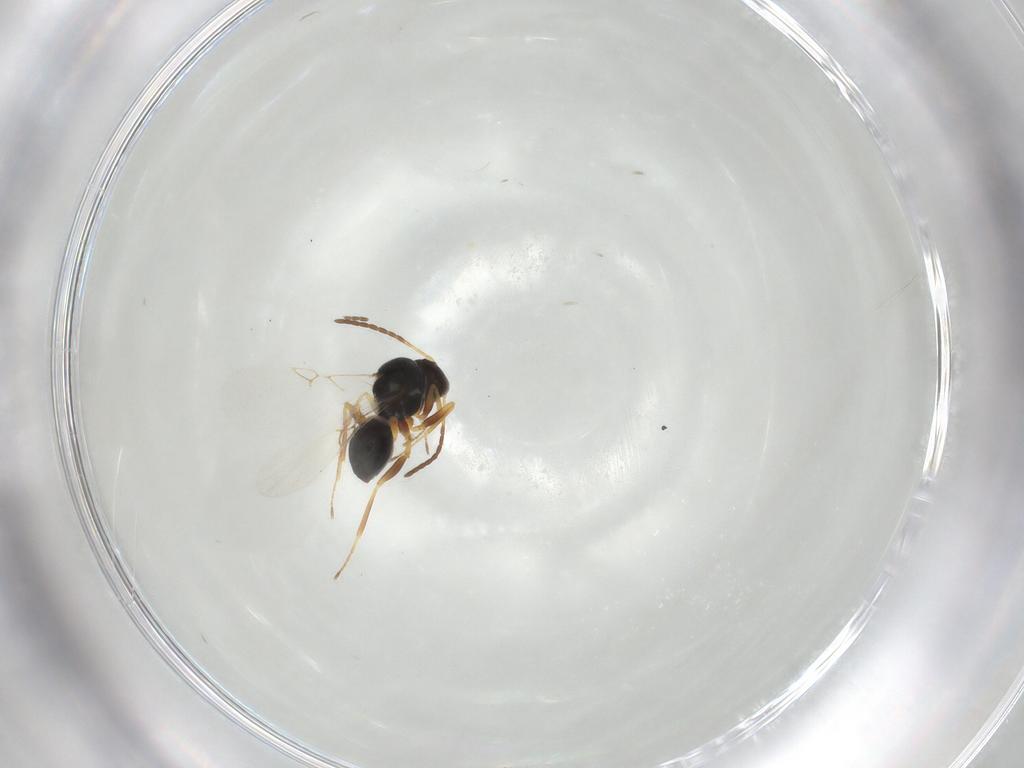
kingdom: Animalia
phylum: Arthropoda
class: Insecta
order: Hymenoptera
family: Figitidae
